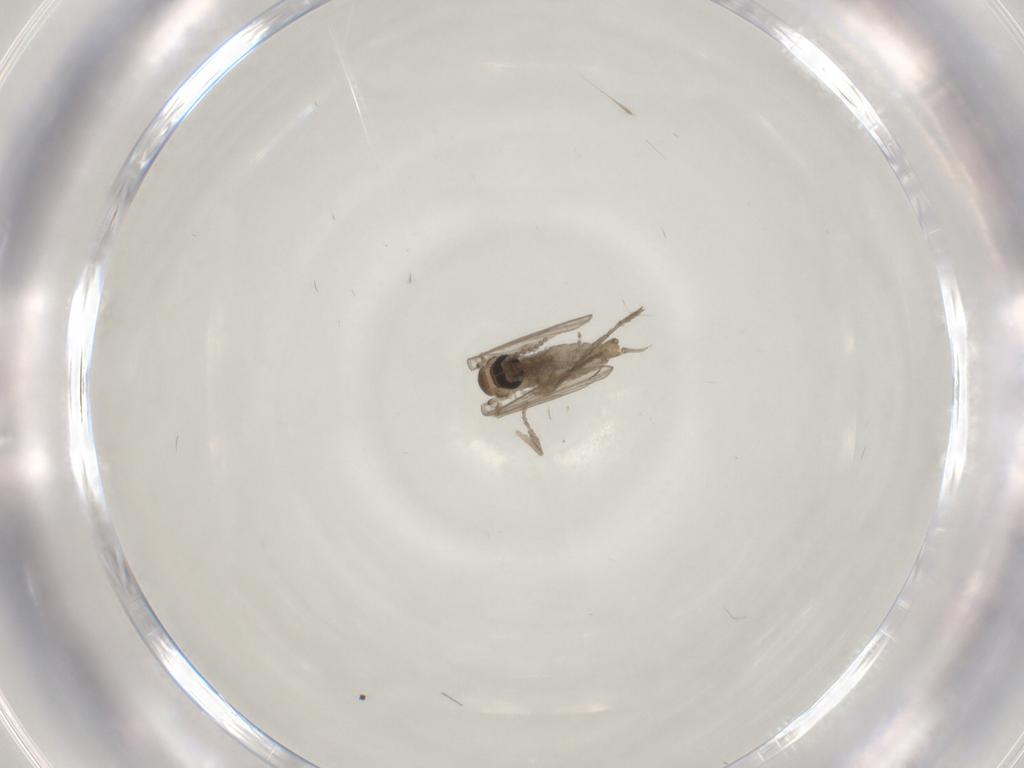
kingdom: Animalia
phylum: Arthropoda
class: Insecta
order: Diptera
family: Psychodidae
